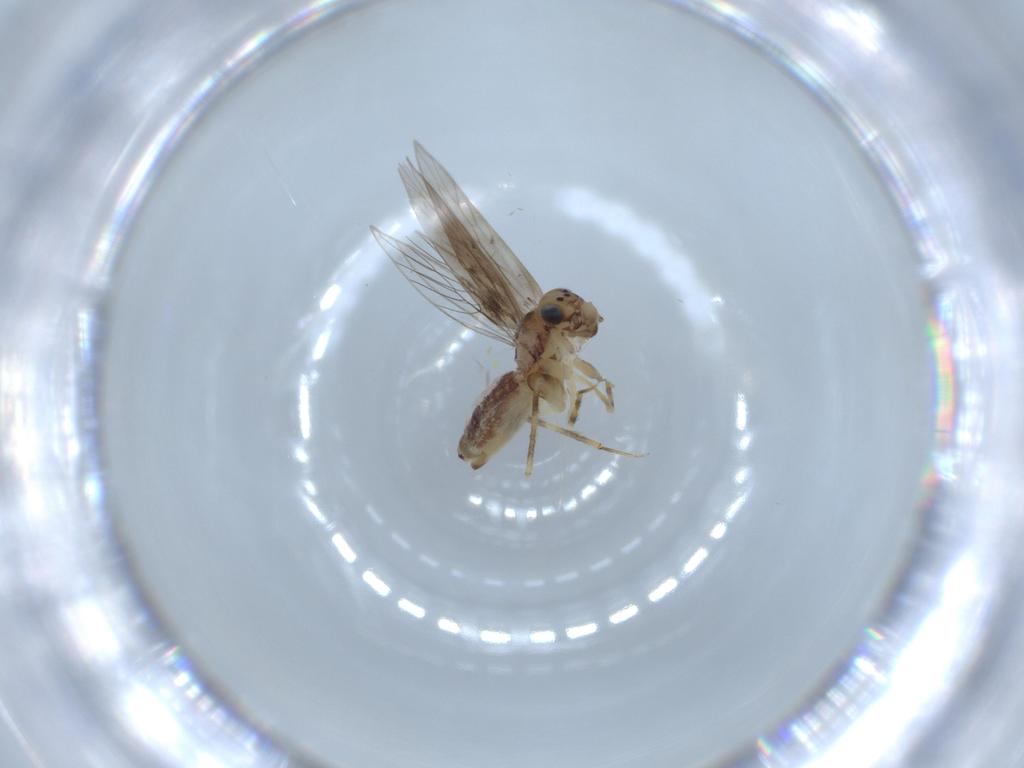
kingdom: Animalia
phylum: Arthropoda
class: Insecta
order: Psocodea
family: Lepidopsocidae
